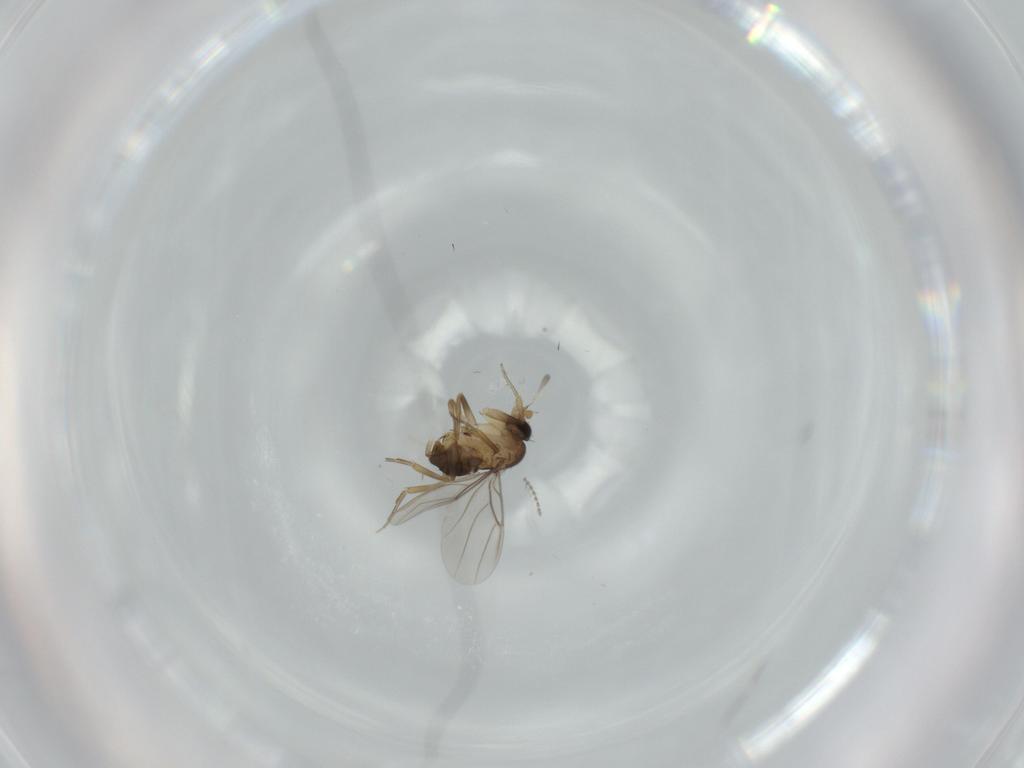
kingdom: Animalia
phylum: Arthropoda
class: Insecta
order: Diptera
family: Phoridae
